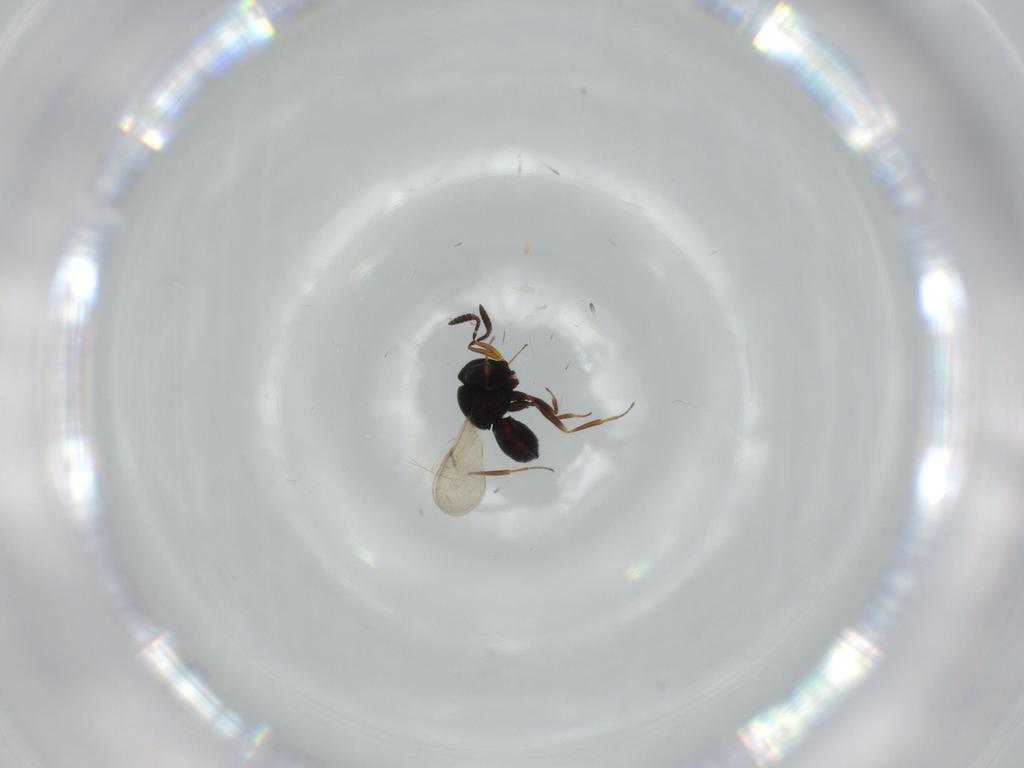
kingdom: Animalia
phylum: Arthropoda
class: Insecta
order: Hymenoptera
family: Scelionidae
